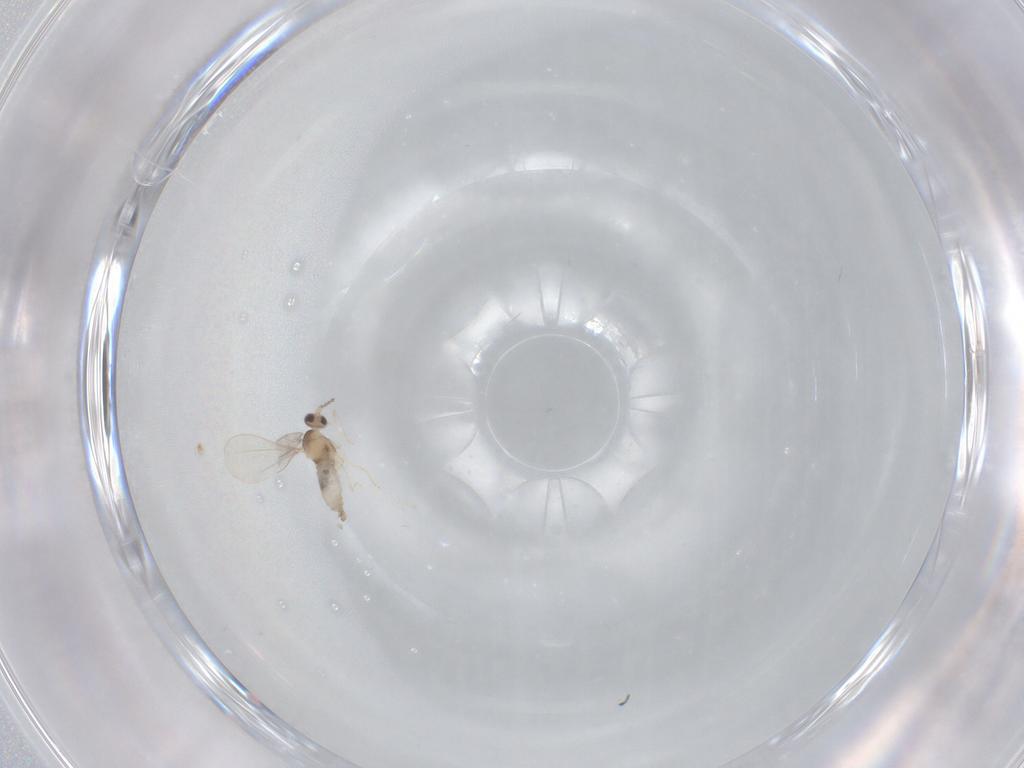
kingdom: Animalia
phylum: Arthropoda
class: Insecta
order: Diptera
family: Cecidomyiidae
